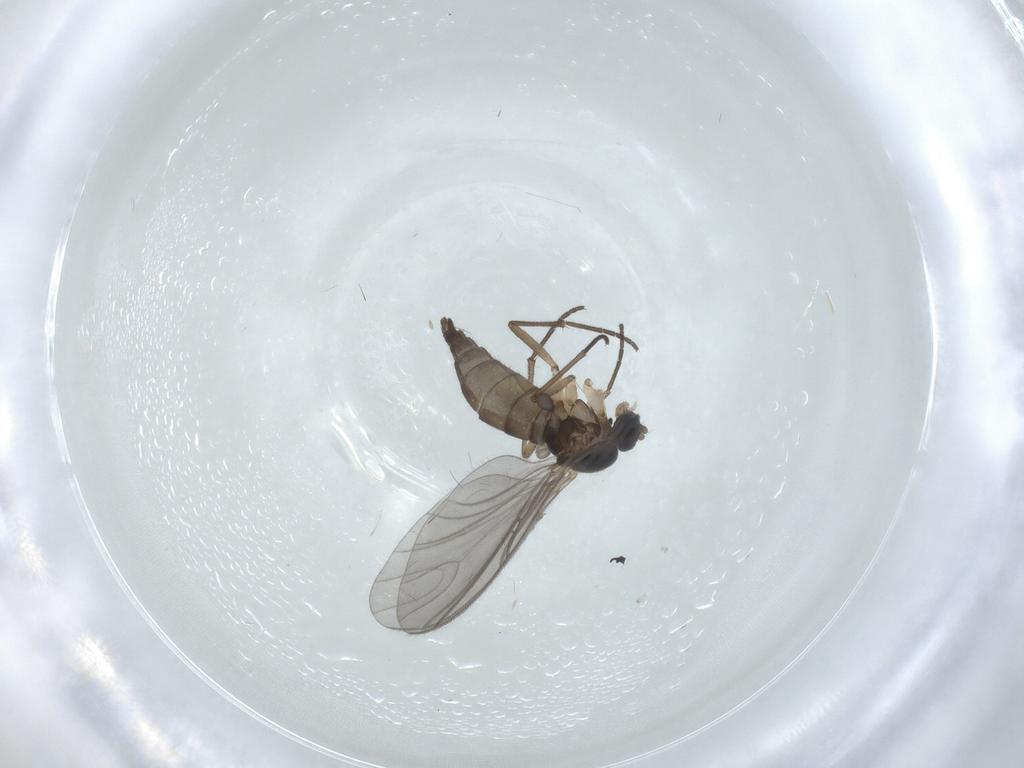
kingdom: Animalia
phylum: Arthropoda
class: Insecta
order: Diptera
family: Sciaridae
